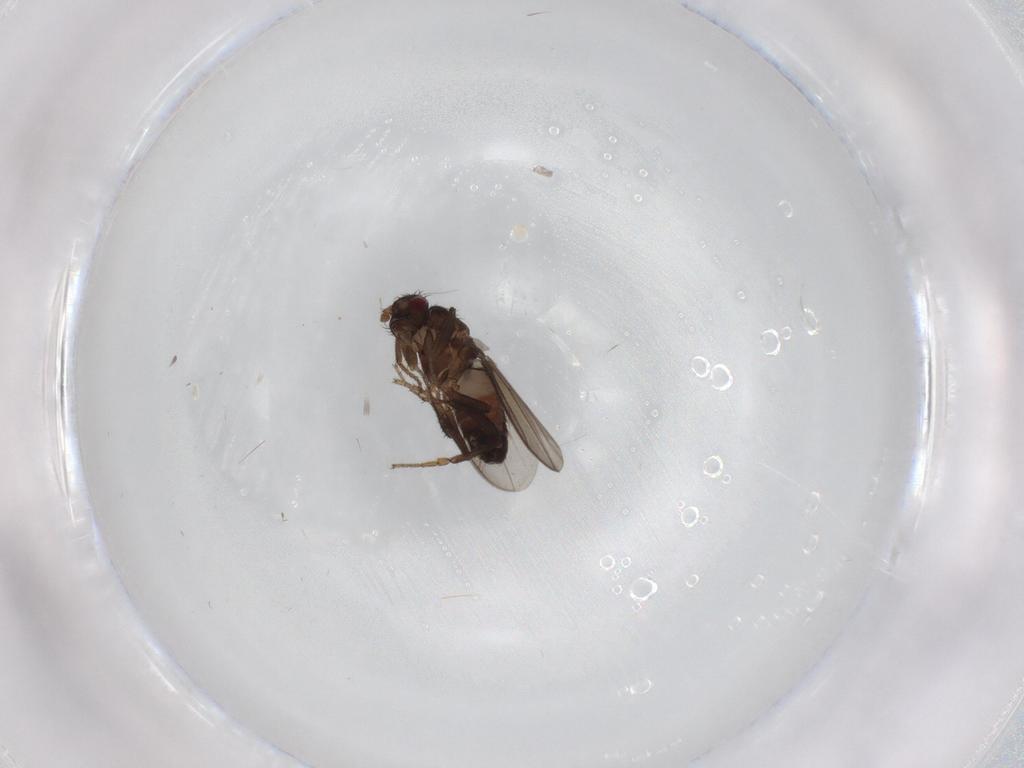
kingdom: Animalia
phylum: Arthropoda
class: Insecta
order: Diptera
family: Sphaeroceridae
